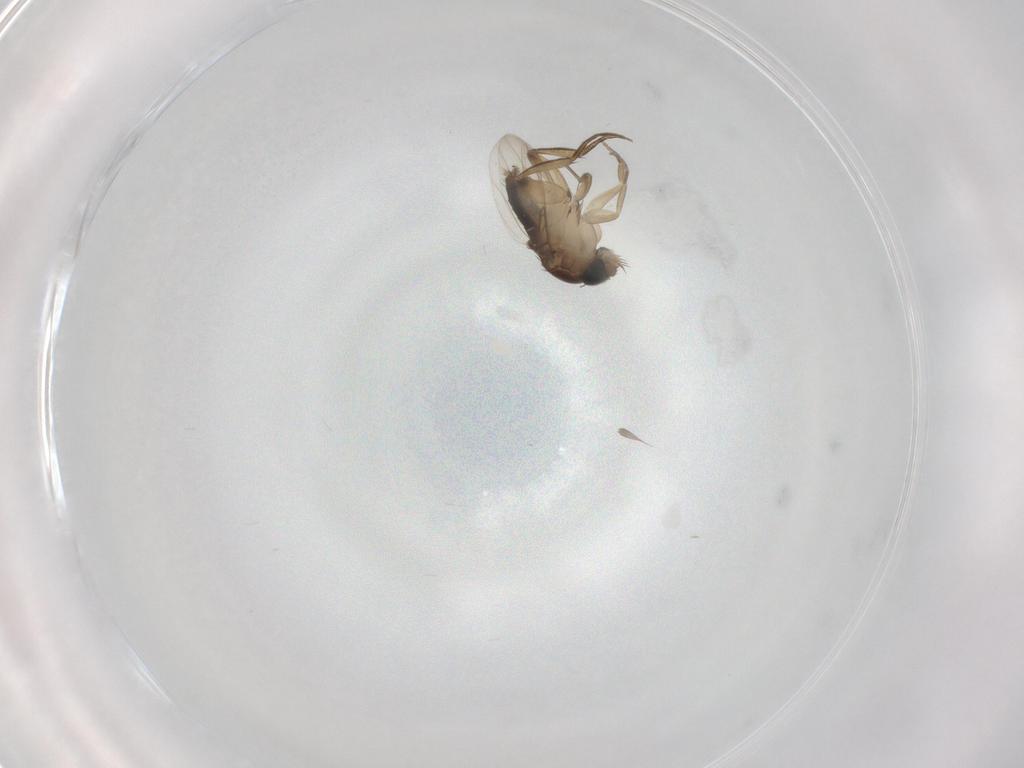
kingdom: Animalia
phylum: Arthropoda
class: Insecta
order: Diptera
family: Phoridae
